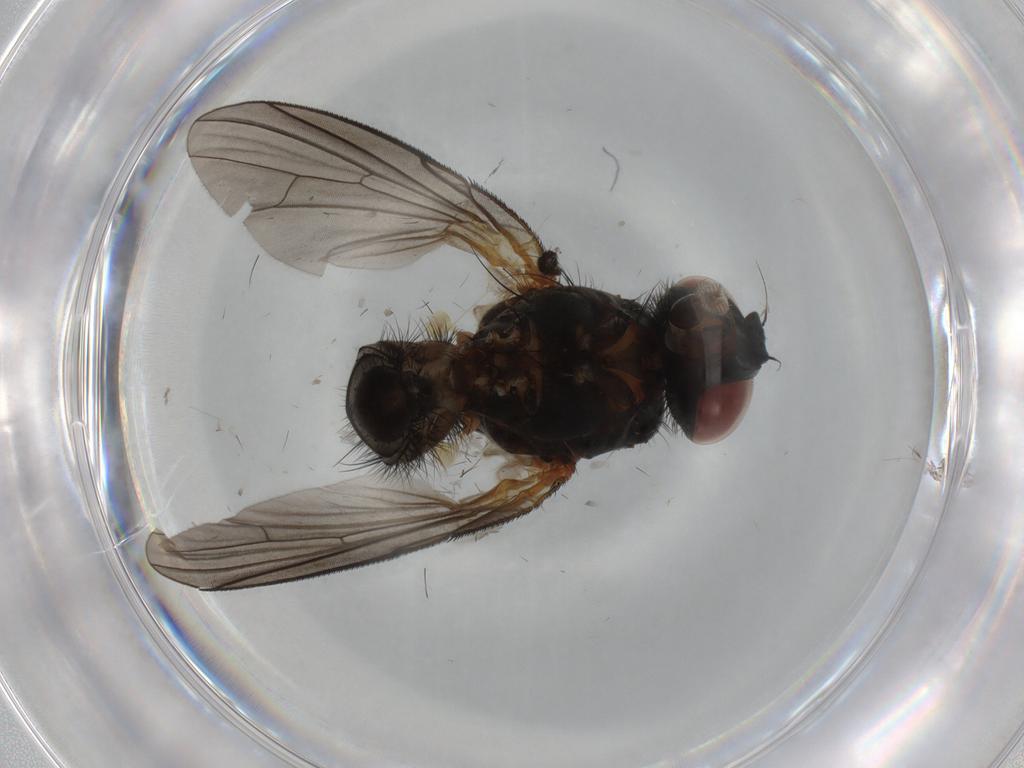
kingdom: Animalia
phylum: Arthropoda
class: Insecta
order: Diptera
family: Anthomyiidae
